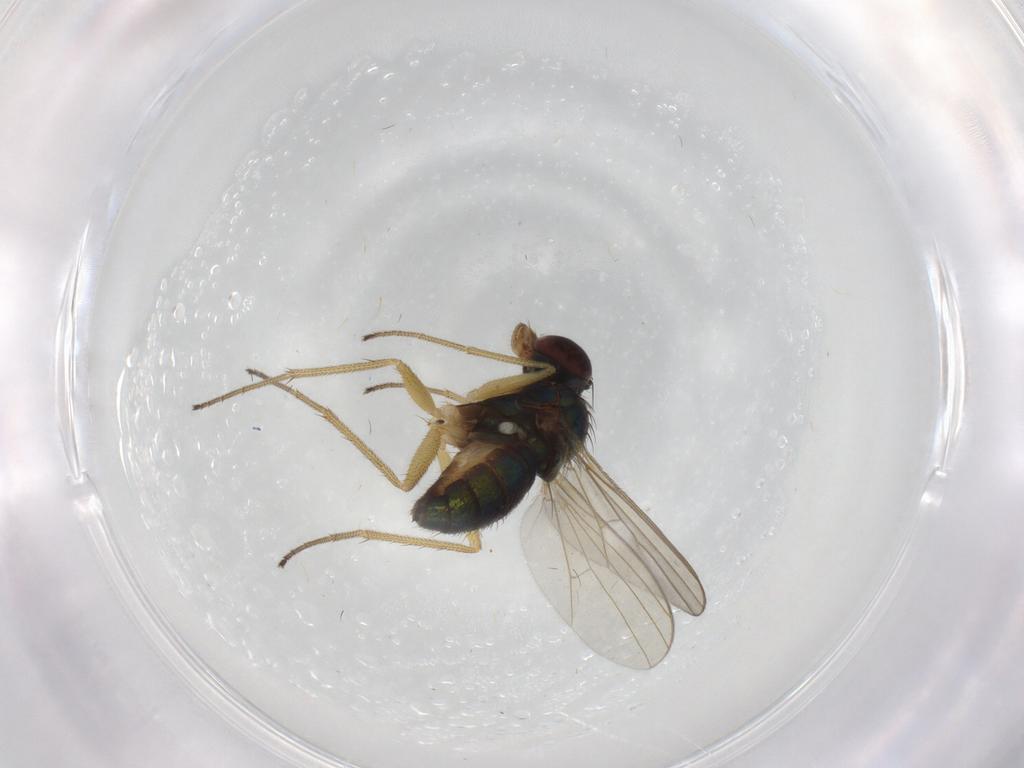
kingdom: Animalia
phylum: Arthropoda
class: Insecta
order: Diptera
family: Dolichopodidae
